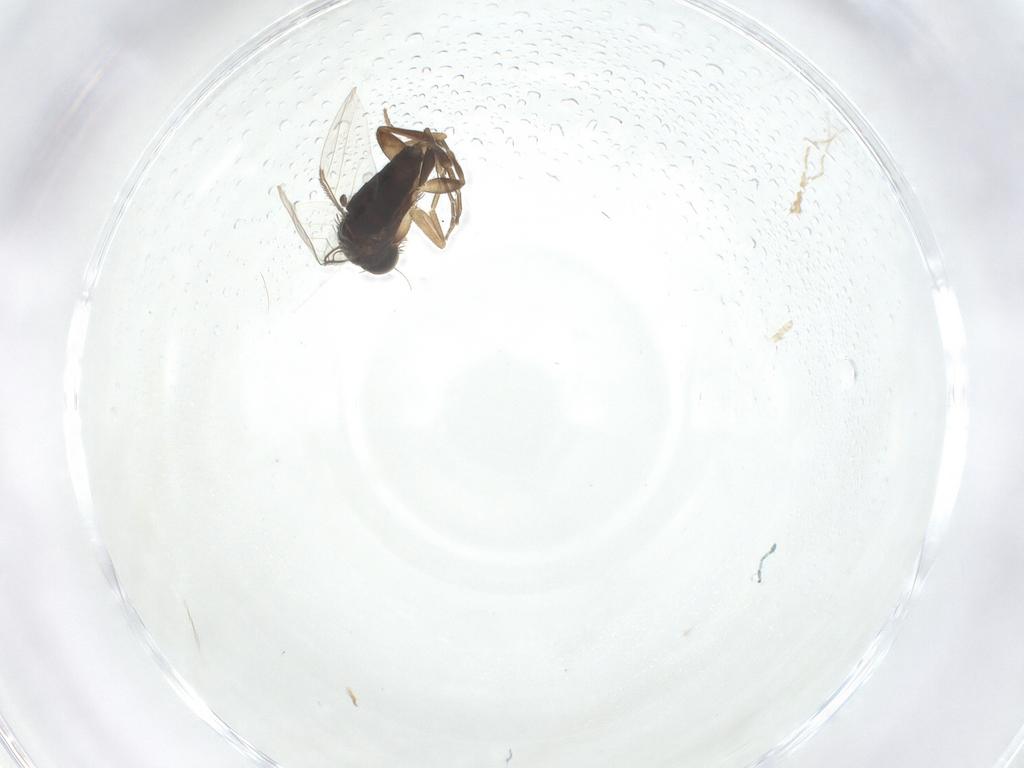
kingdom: Animalia
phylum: Arthropoda
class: Insecta
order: Diptera
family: Phoridae
